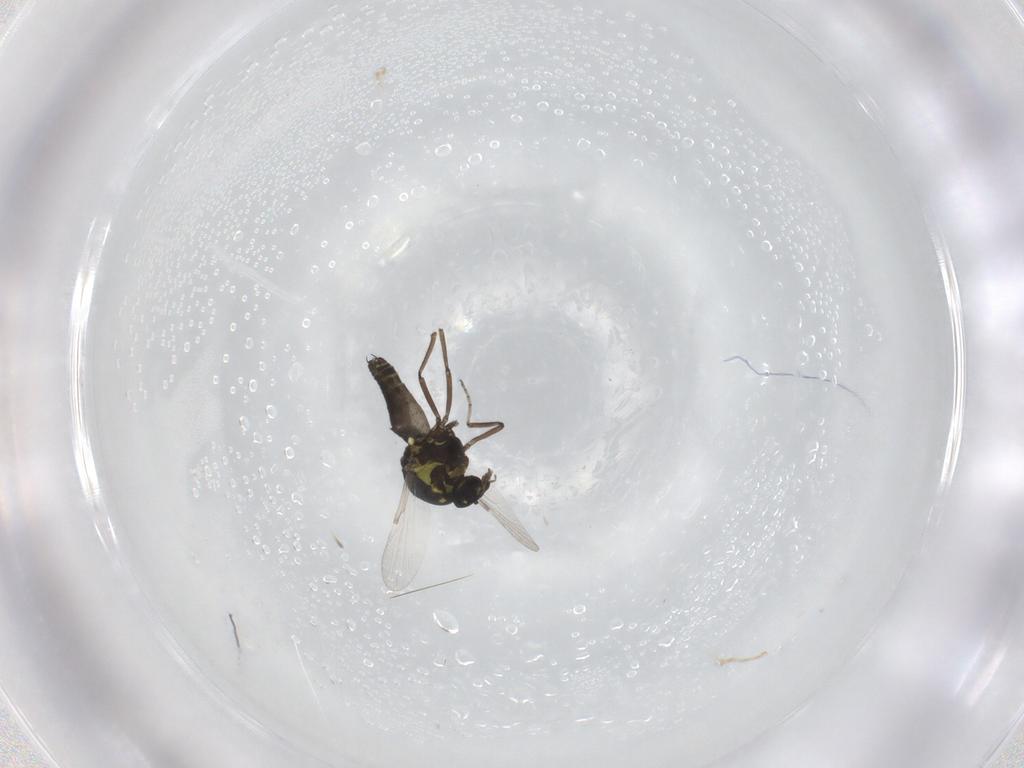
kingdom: Animalia
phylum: Arthropoda
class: Insecta
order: Diptera
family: Ceratopogonidae
